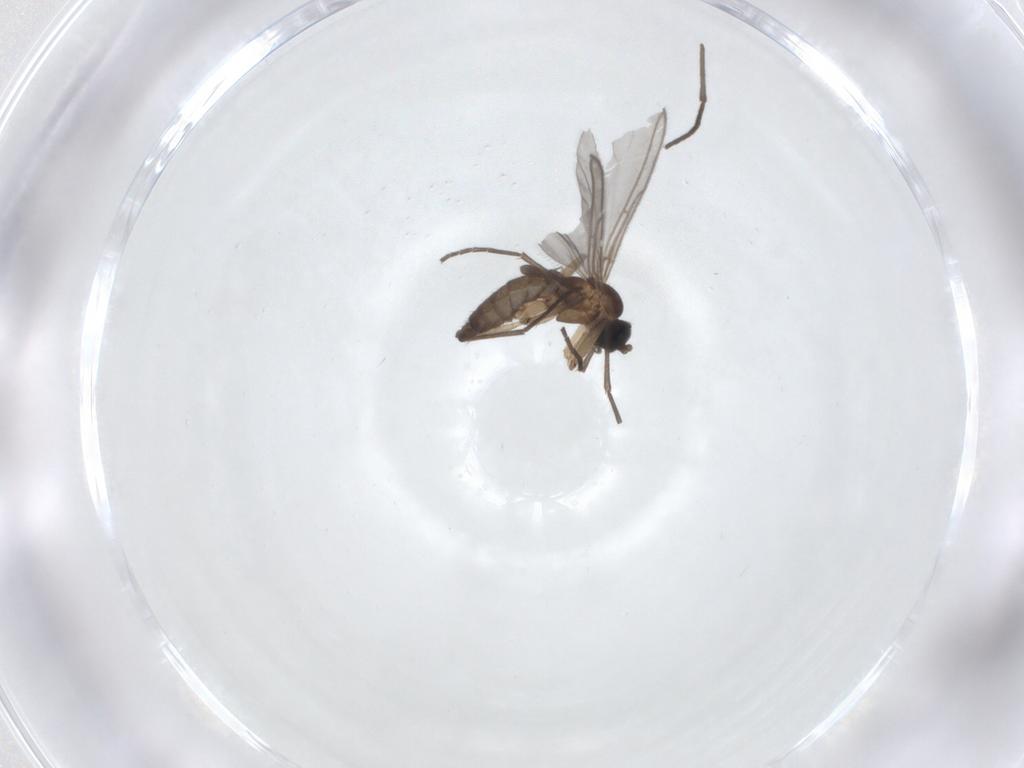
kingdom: Animalia
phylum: Arthropoda
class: Insecta
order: Diptera
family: Sciaridae
